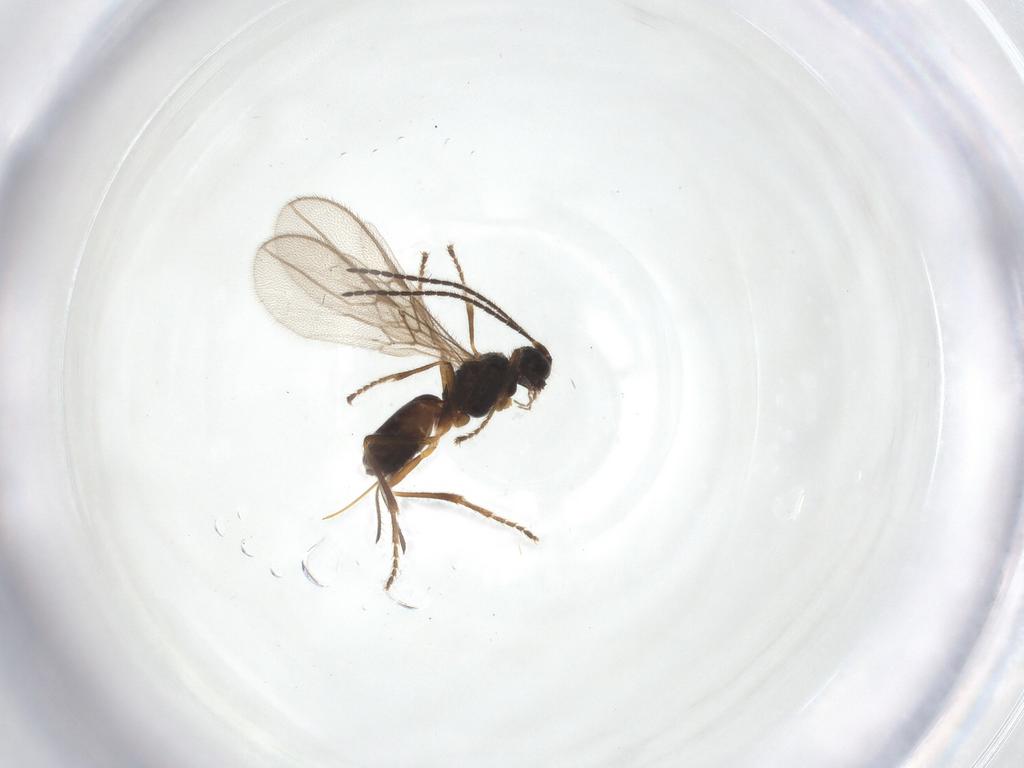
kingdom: Animalia
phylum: Arthropoda
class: Insecta
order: Hymenoptera
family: Braconidae
